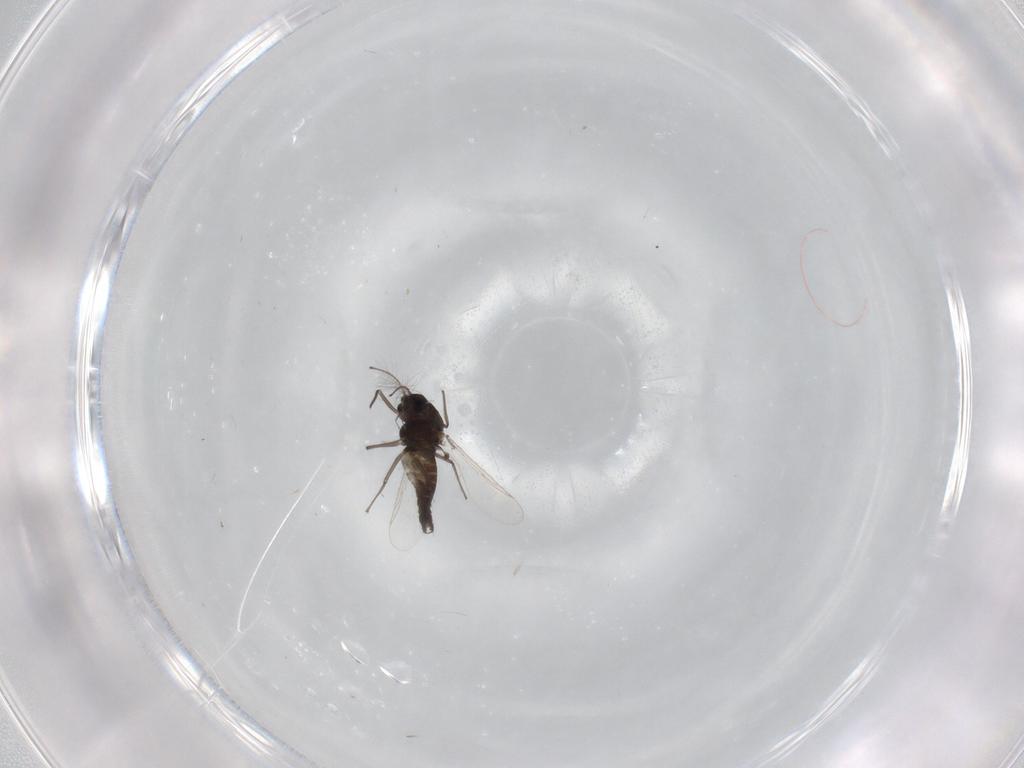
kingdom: Animalia
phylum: Arthropoda
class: Insecta
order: Diptera
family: Chironomidae
